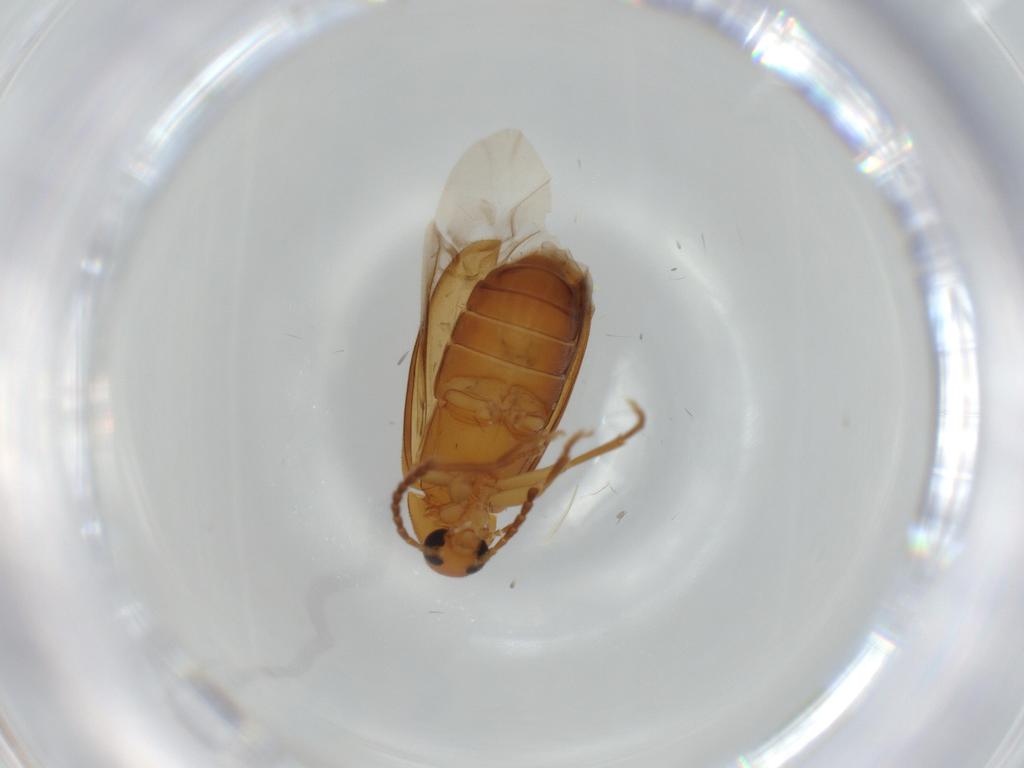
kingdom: Animalia
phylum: Arthropoda
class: Insecta
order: Coleoptera
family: Scraptiidae
